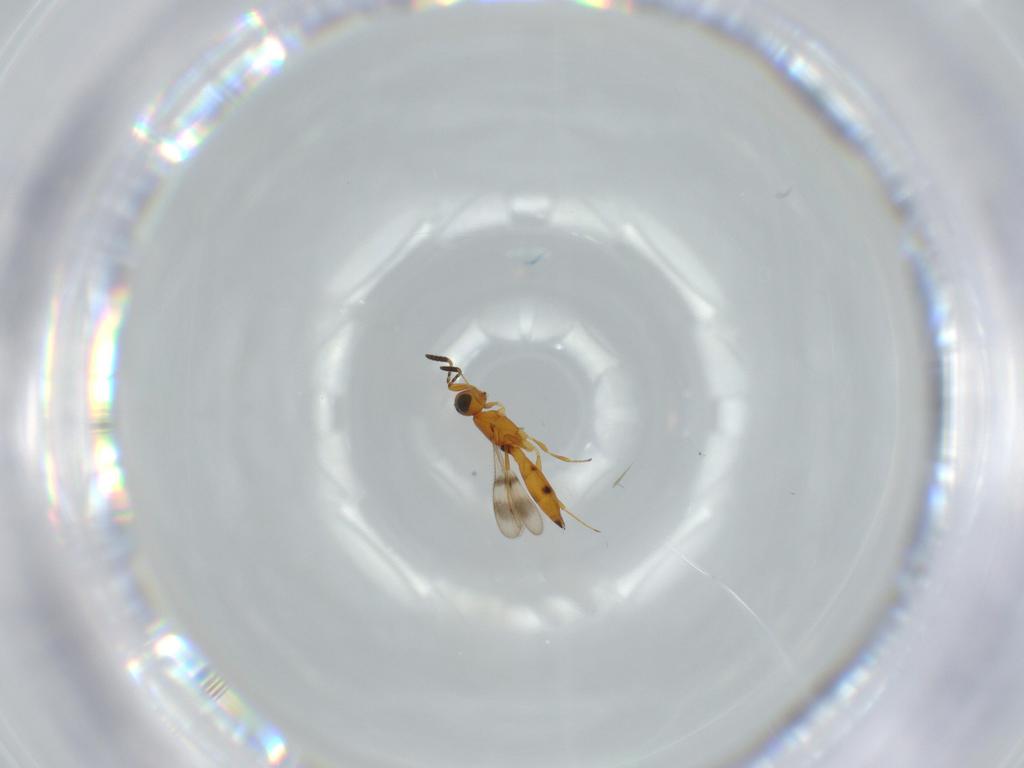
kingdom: Animalia
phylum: Arthropoda
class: Insecta
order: Hymenoptera
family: Scelionidae
